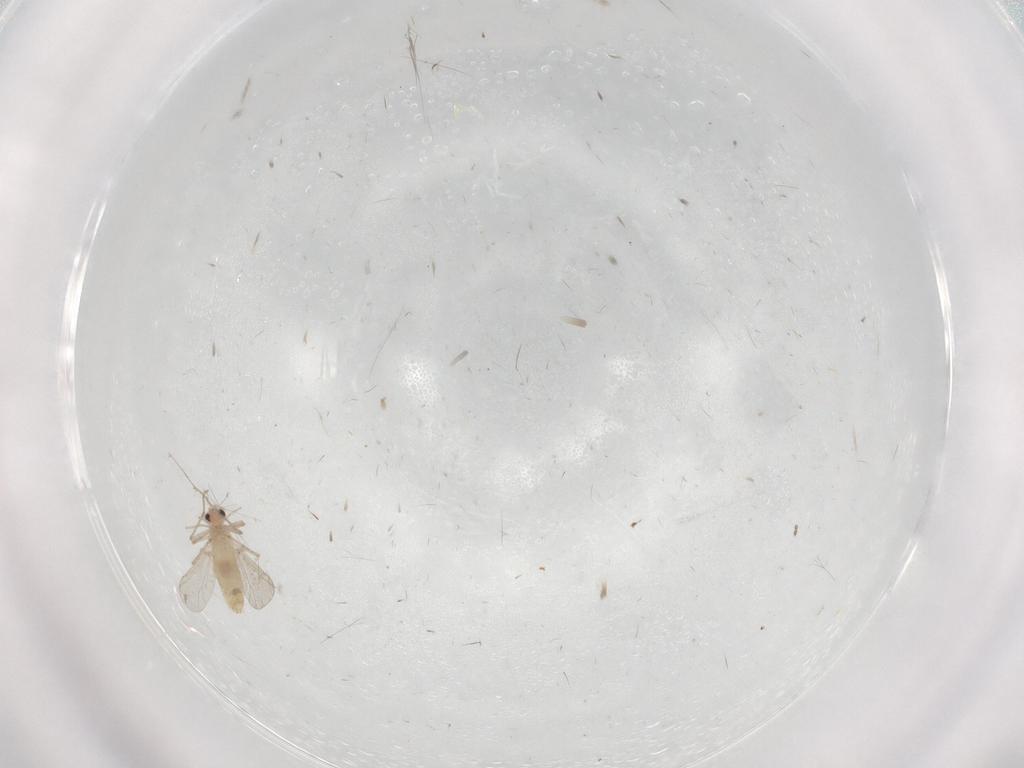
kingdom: Animalia
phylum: Arthropoda
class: Insecta
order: Diptera
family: Chironomidae
